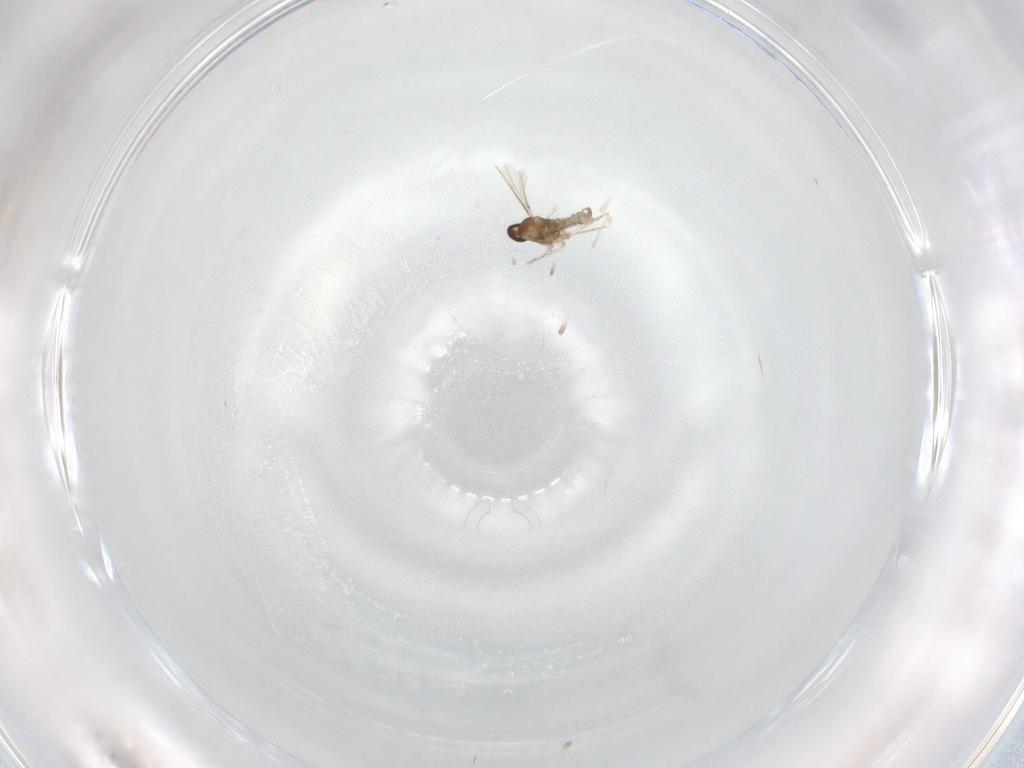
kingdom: Animalia
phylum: Arthropoda
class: Insecta
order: Diptera
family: Cecidomyiidae
